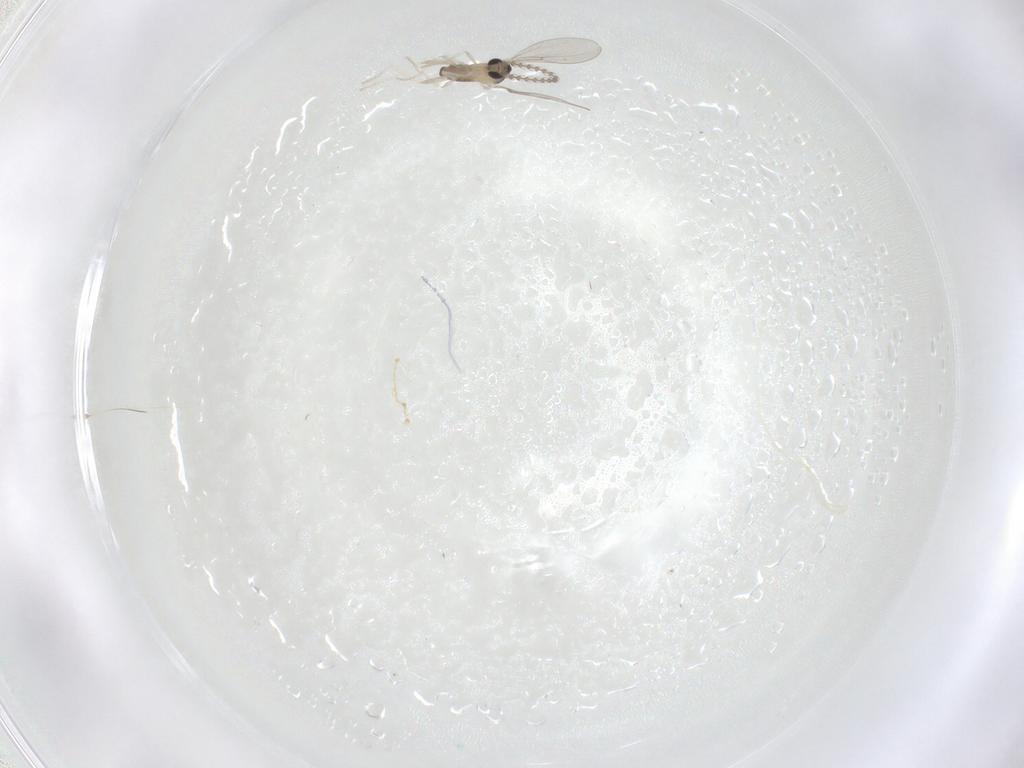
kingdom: Animalia
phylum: Arthropoda
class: Insecta
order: Diptera
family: Cecidomyiidae
